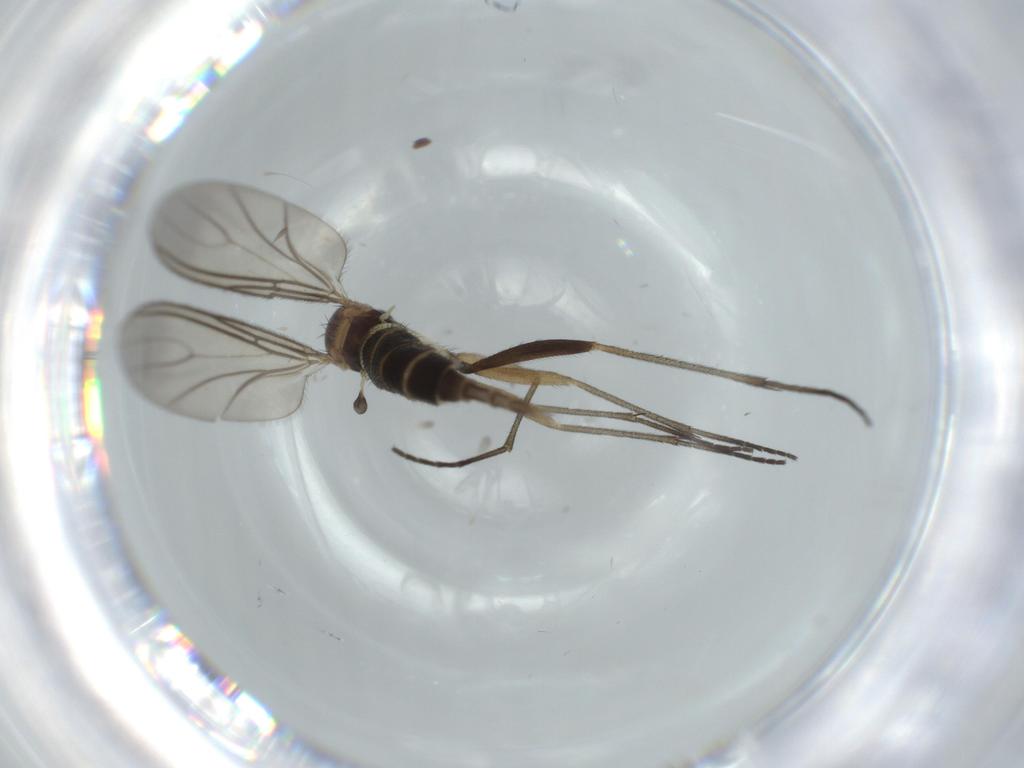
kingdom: Animalia
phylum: Arthropoda
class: Insecta
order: Diptera
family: Sciaridae
